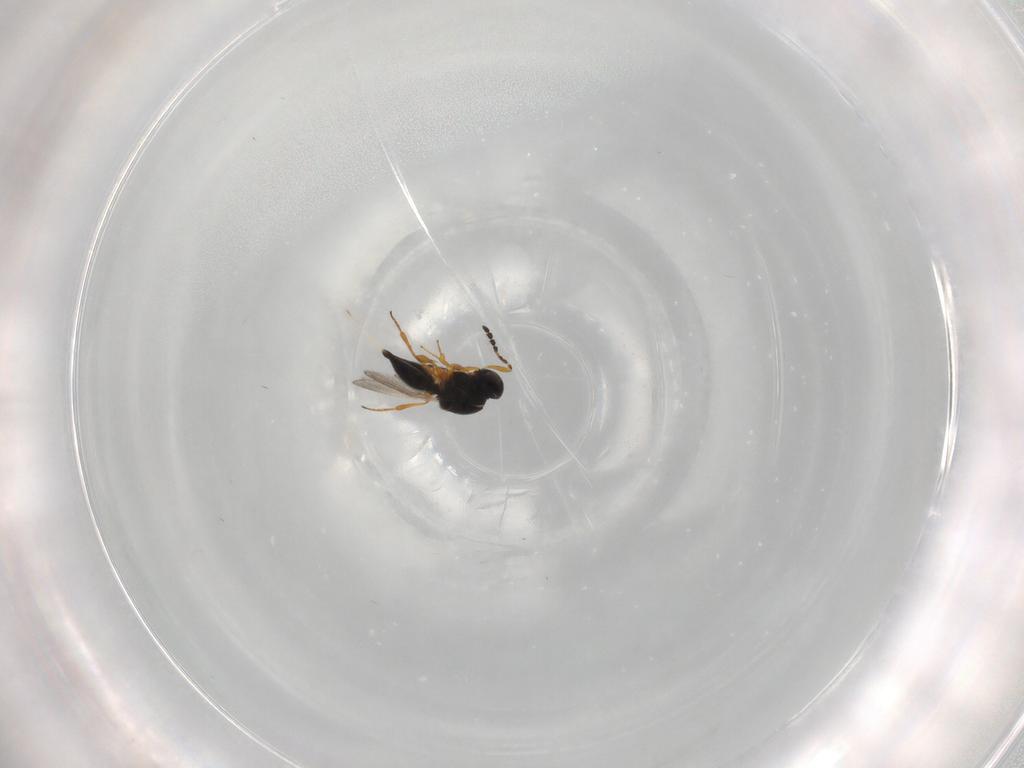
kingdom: Animalia
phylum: Arthropoda
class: Insecta
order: Hymenoptera
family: Platygastridae
